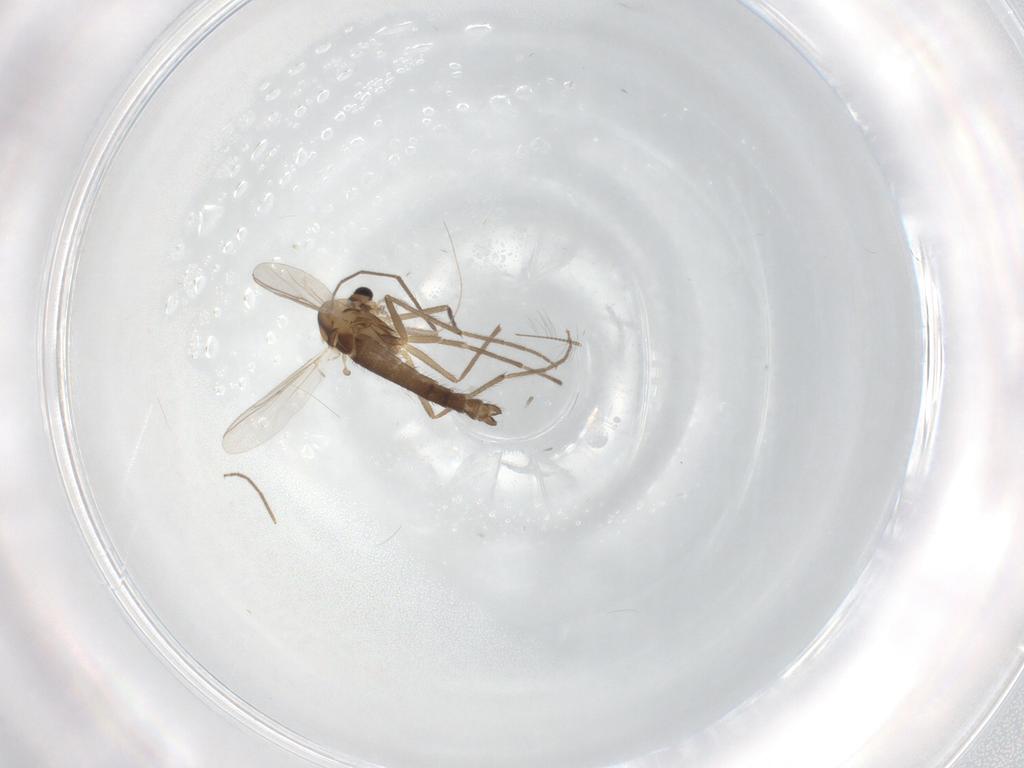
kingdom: Animalia
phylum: Arthropoda
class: Insecta
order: Diptera
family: Chironomidae
